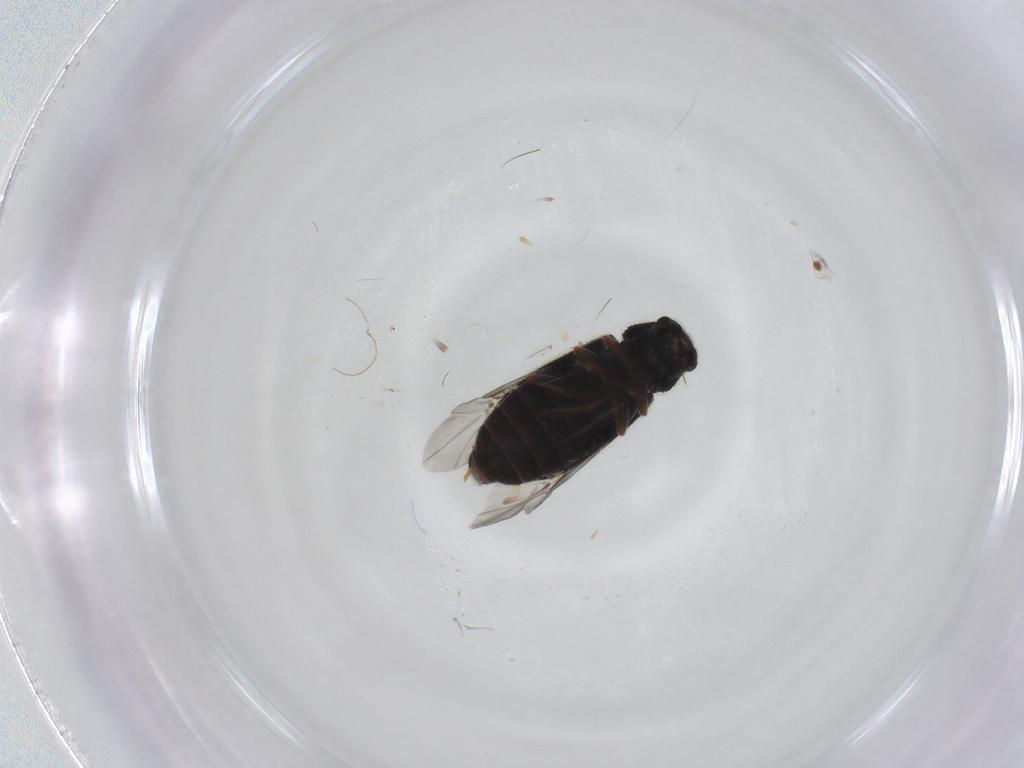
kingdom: Animalia
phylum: Arthropoda
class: Insecta
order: Coleoptera
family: Melyridae
